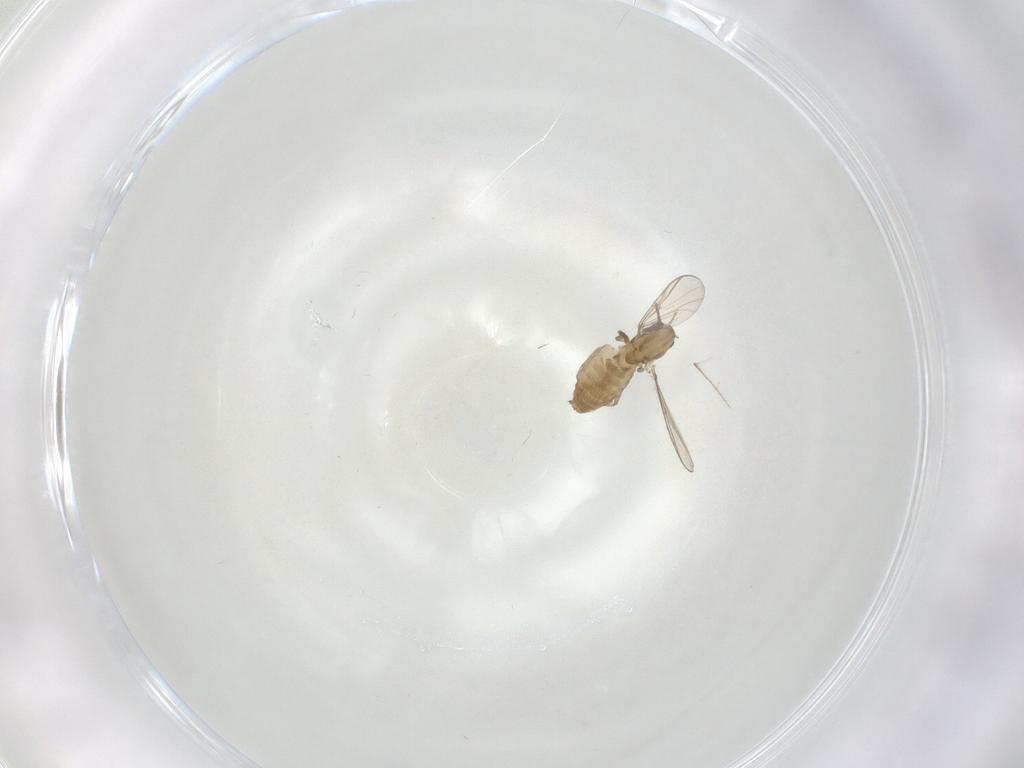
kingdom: Animalia
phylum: Arthropoda
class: Insecta
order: Diptera
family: Chironomidae
